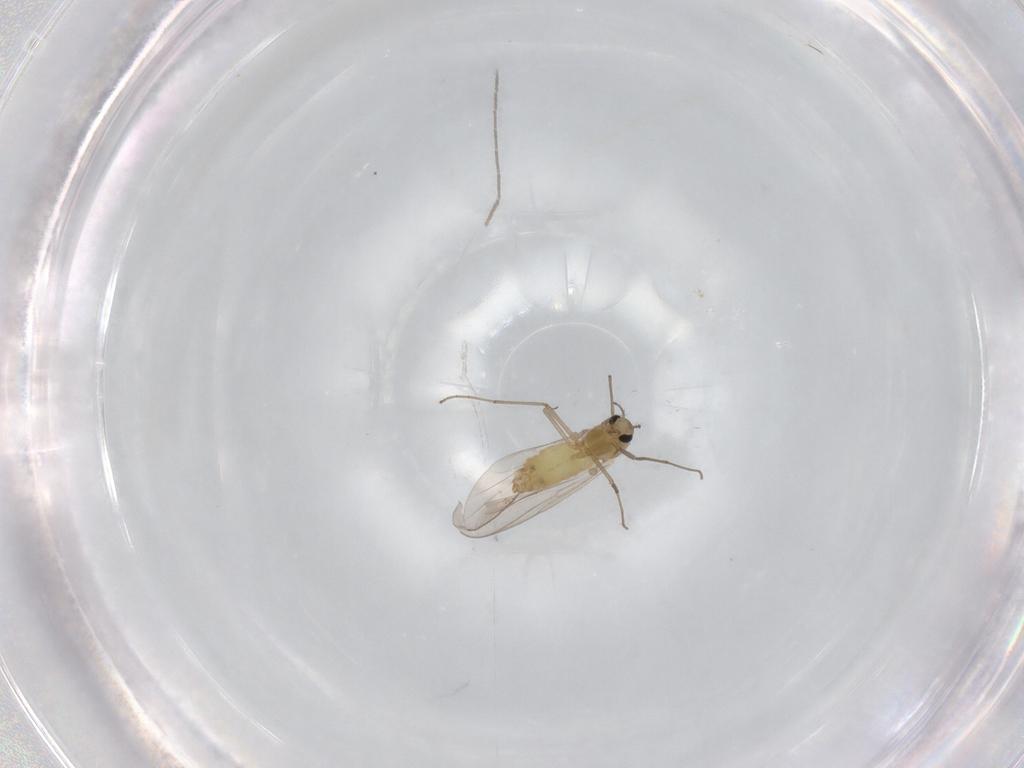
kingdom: Animalia
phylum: Arthropoda
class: Insecta
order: Diptera
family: Chironomidae
